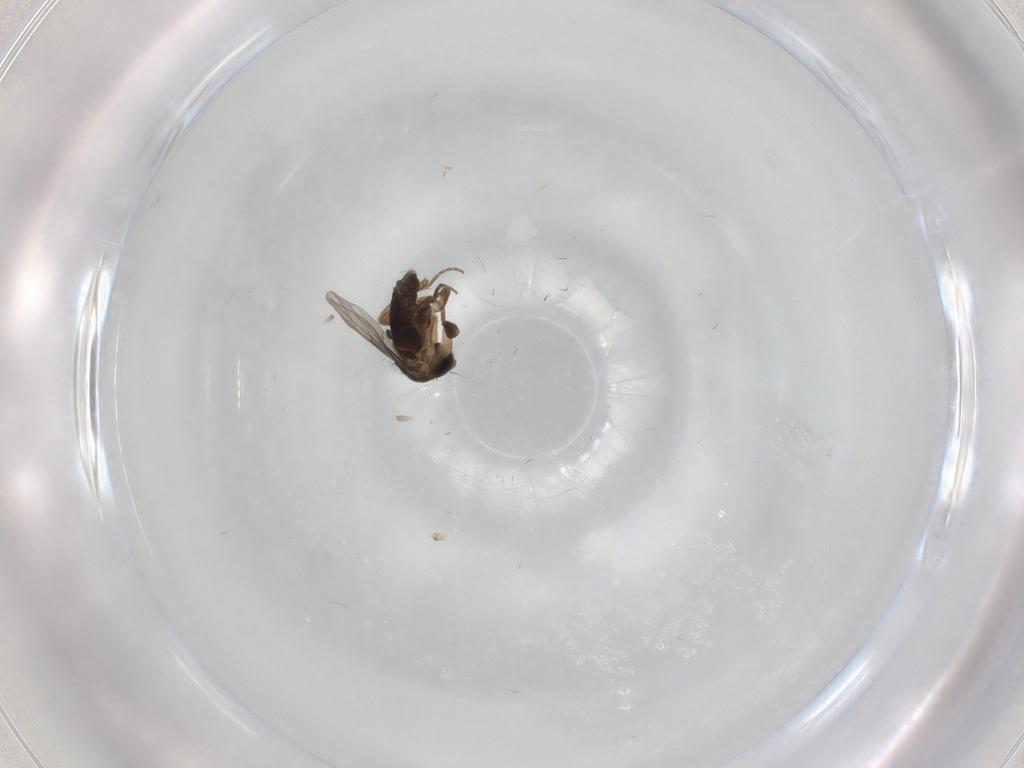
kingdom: Animalia
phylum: Arthropoda
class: Insecta
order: Diptera
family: Phoridae
